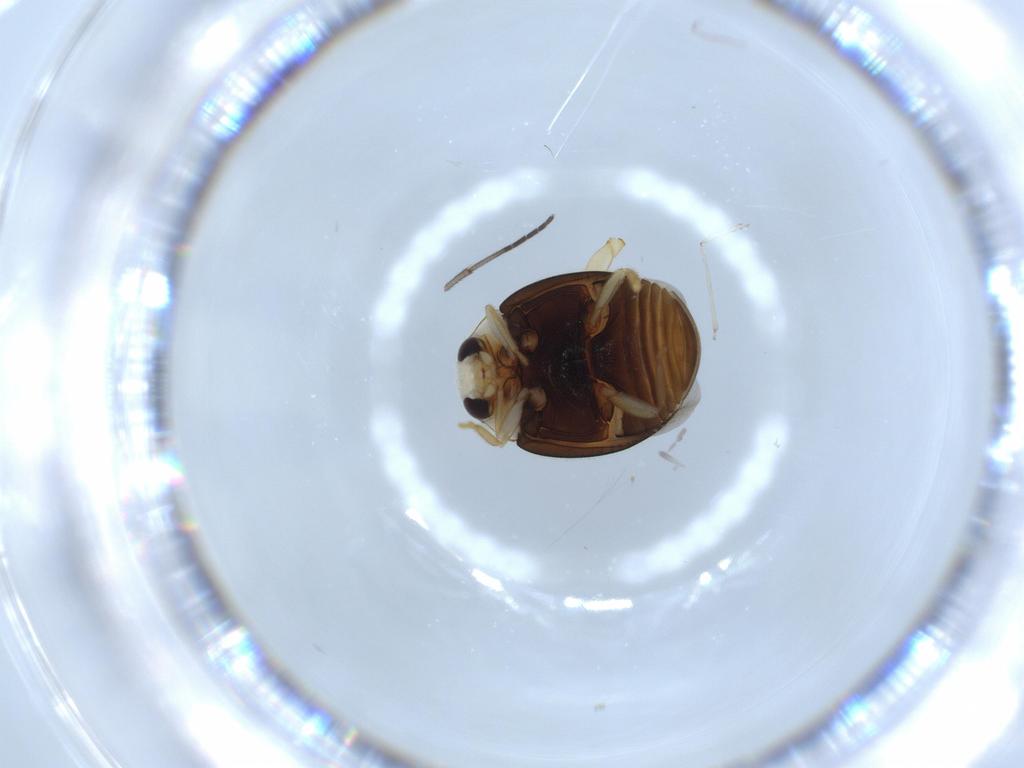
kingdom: Animalia
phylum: Arthropoda
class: Insecta
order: Coleoptera
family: Coccinellidae
